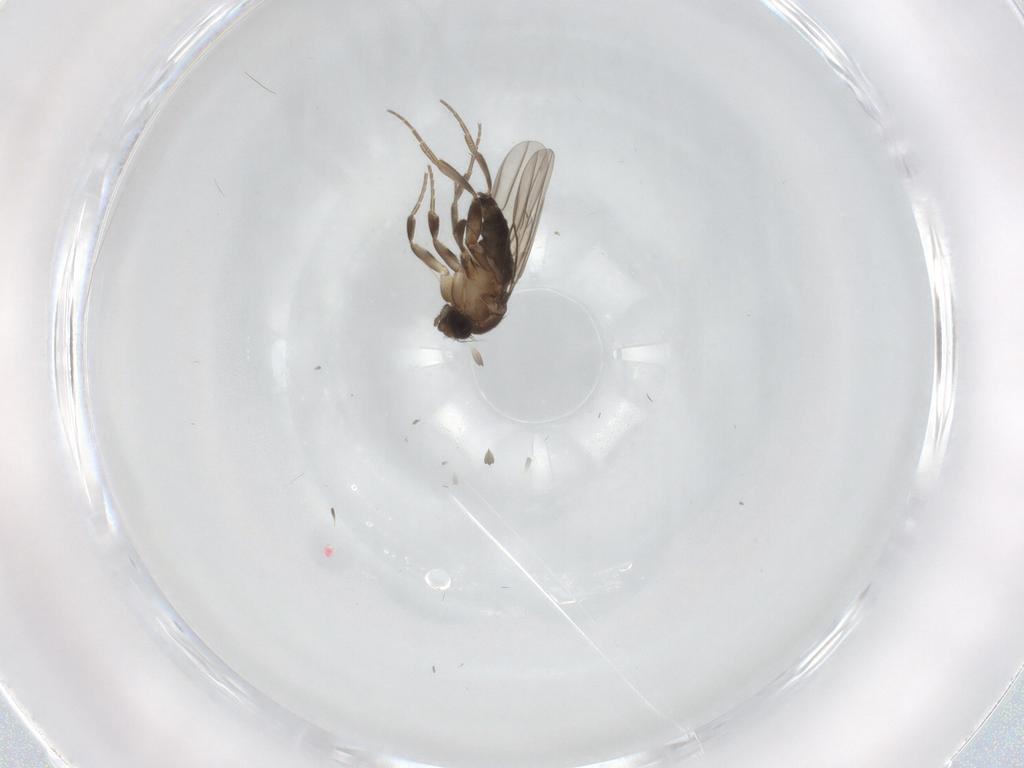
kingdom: Animalia
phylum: Arthropoda
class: Insecta
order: Diptera
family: Phoridae
